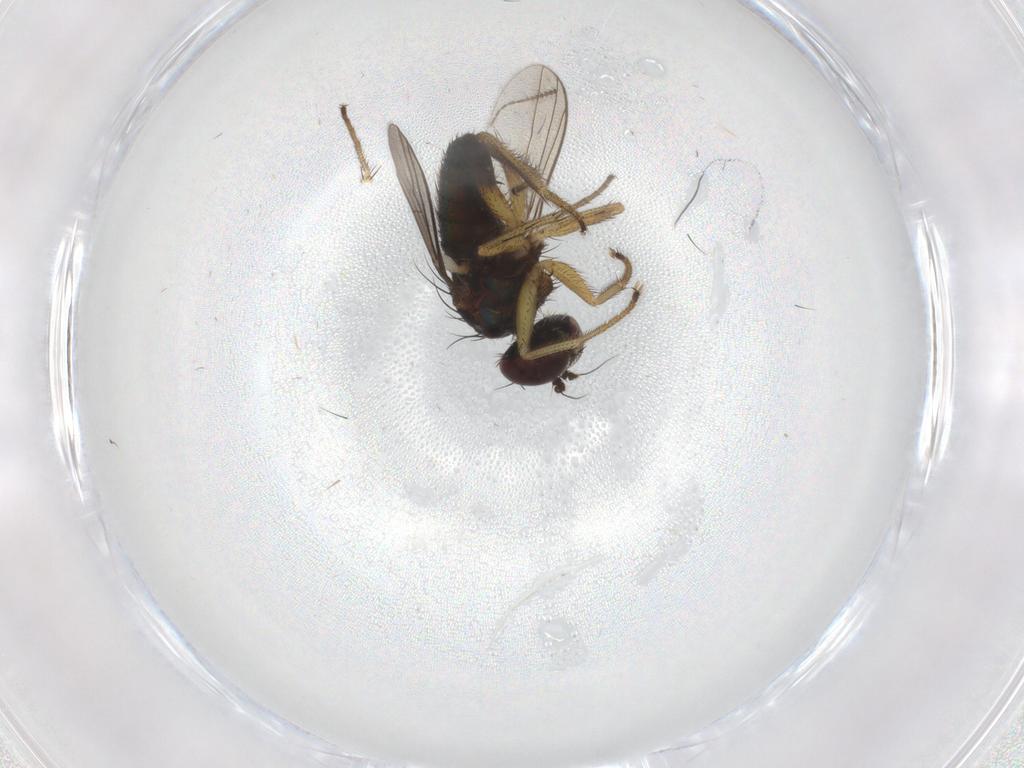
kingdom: Animalia
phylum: Arthropoda
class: Insecta
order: Diptera
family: Dolichopodidae
